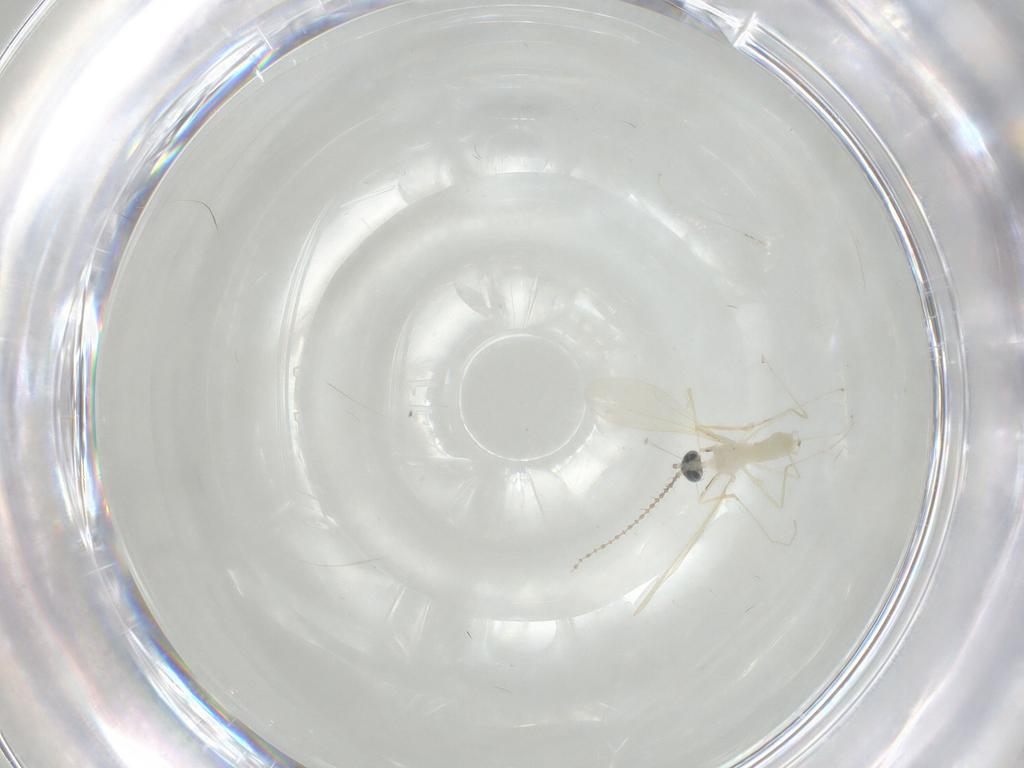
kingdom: Animalia
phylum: Arthropoda
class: Insecta
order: Diptera
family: Cecidomyiidae
